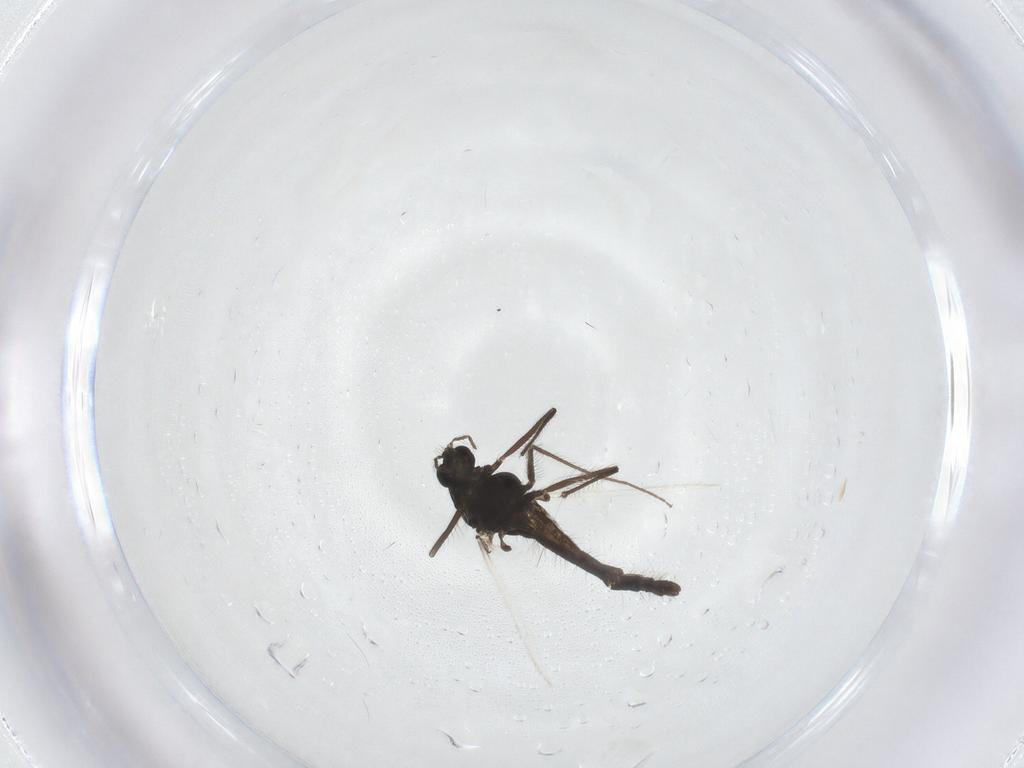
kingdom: Animalia
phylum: Arthropoda
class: Insecta
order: Diptera
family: Chironomidae
